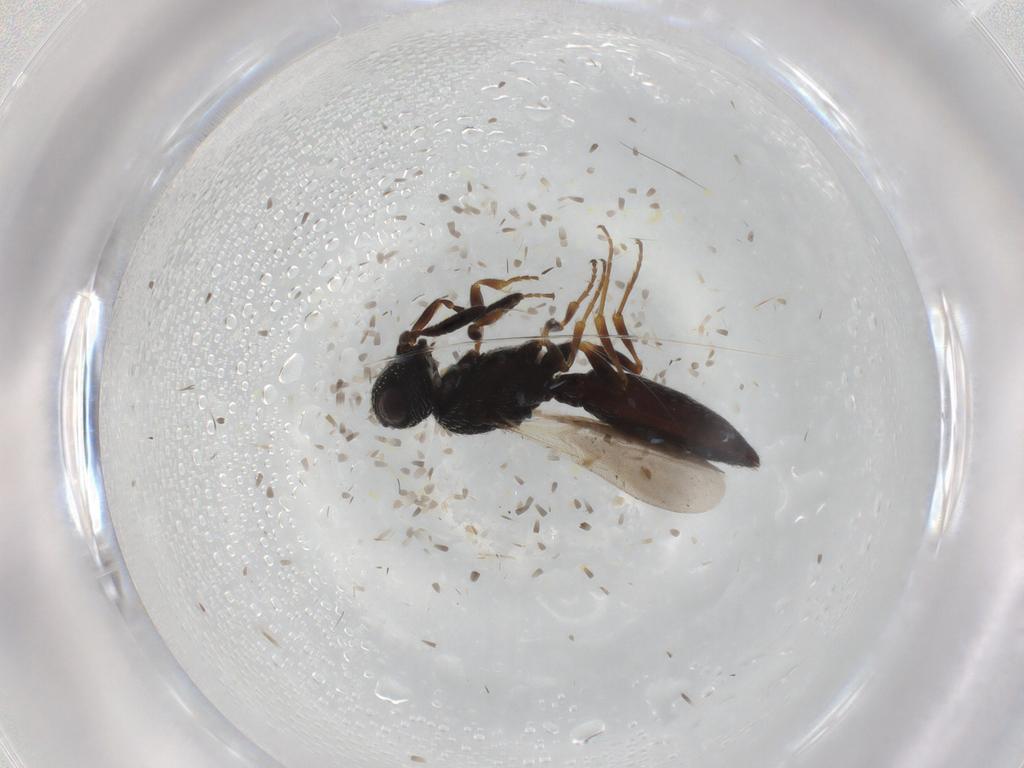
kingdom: Animalia
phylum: Arthropoda
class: Insecta
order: Hymenoptera
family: Scelionidae
